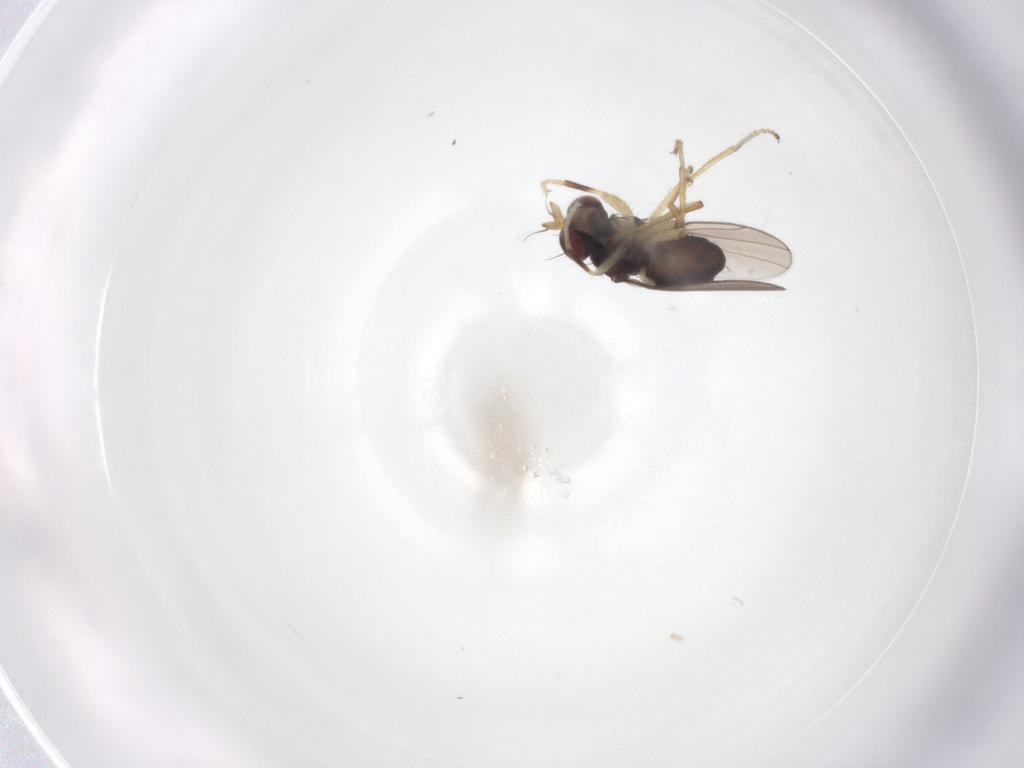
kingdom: Animalia
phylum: Arthropoda
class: Insecta
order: Diptera
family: Ephydridae
